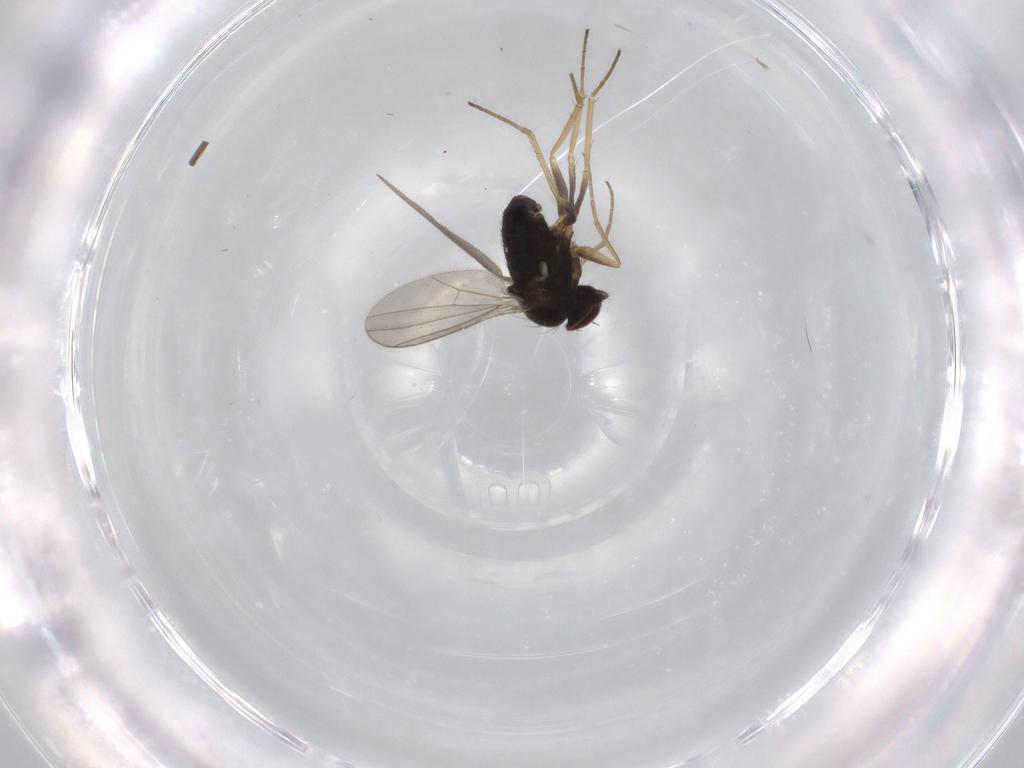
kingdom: Animalia
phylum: Arthropoda
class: Insecta
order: Diptera
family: Dolichopodidae
